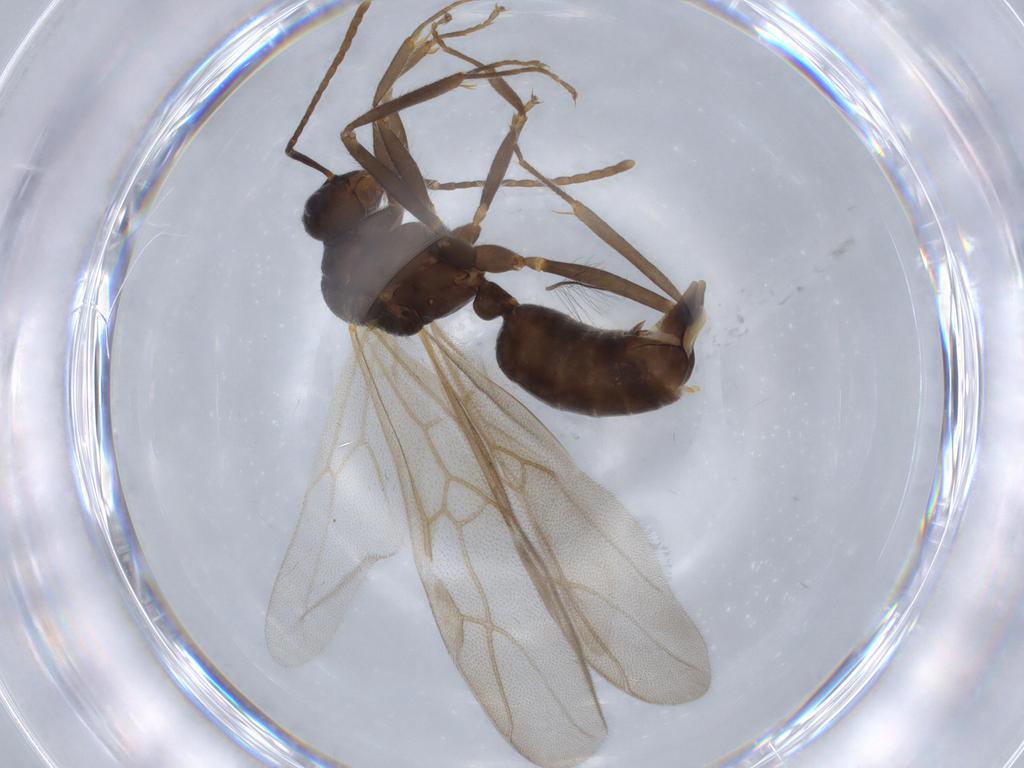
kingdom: Animalia
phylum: Arthropoda
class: Insecta
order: Hymenoptera
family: Formicidae
